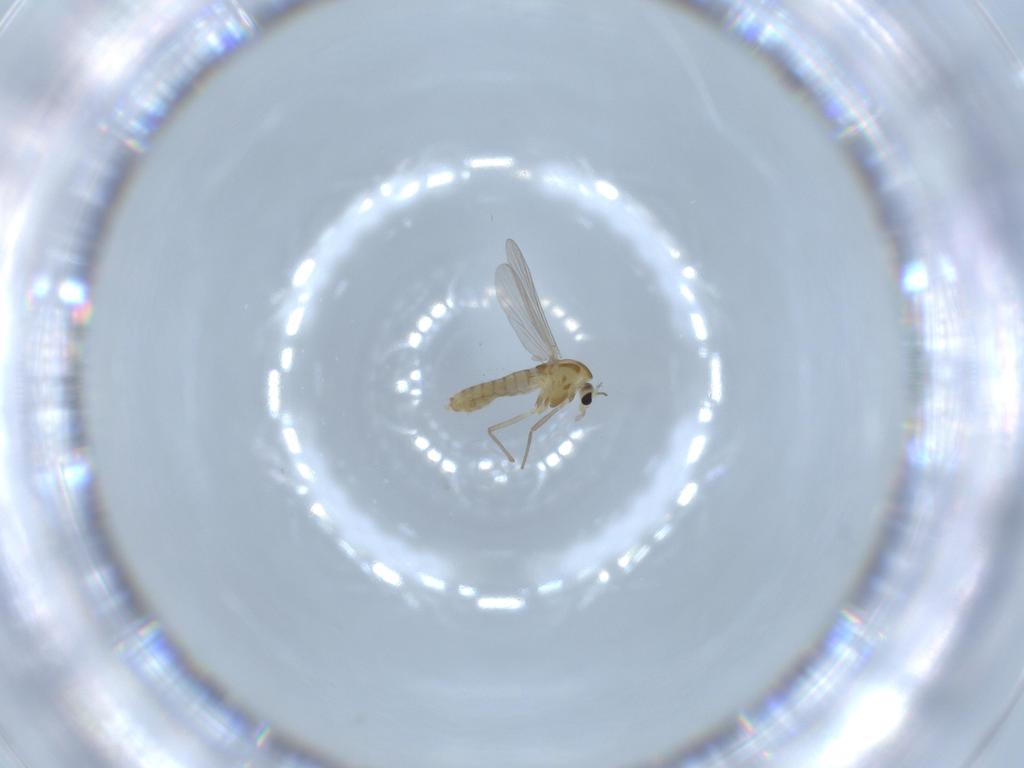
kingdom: Animalia
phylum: Arthropoda
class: Insecta
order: Diptera
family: Chironomidae
